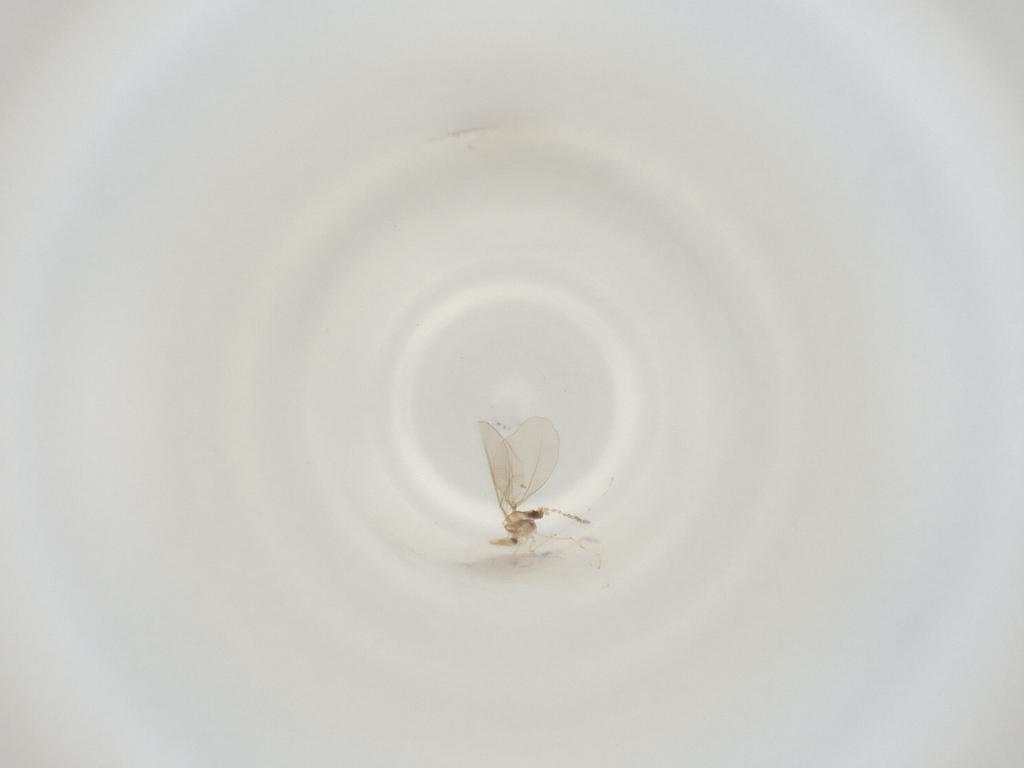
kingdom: Animalia
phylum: Arthropoda
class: Insecta
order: Diptera
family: Cecidomyiidae
